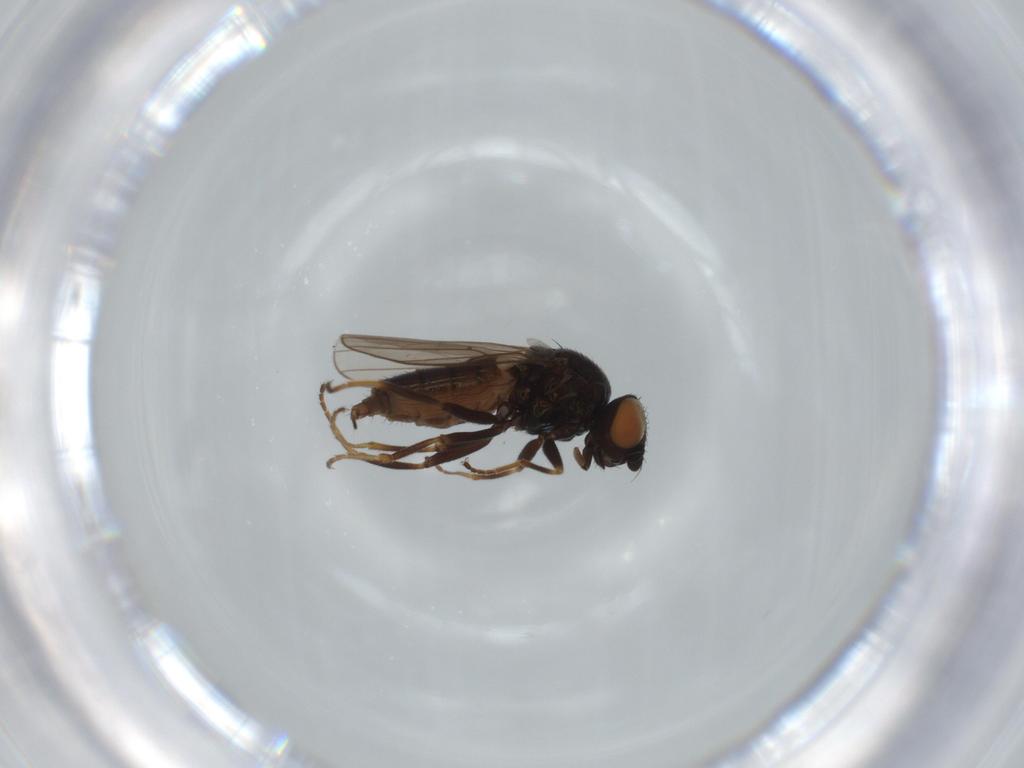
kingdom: Animalia
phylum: Arthropoda
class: Insecta
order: Diptera
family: Chloropidae
